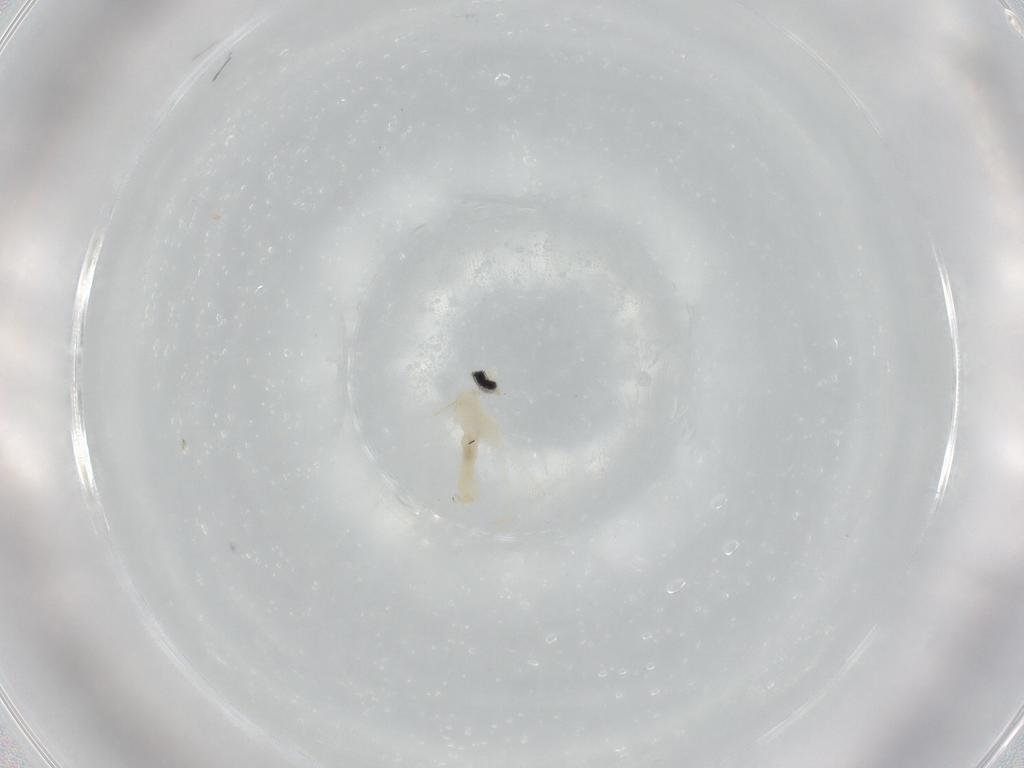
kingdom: Animalia
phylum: Arthropoda
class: Insecta
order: Diptera
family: Cecidomyiidae
